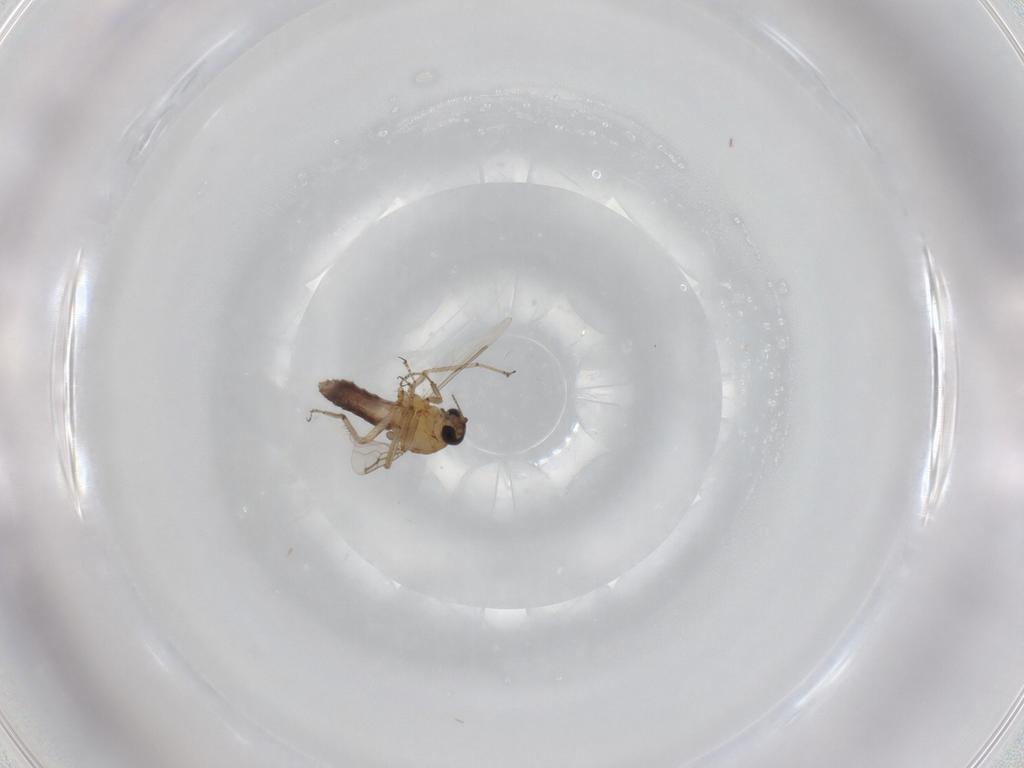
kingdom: Animalia
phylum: Arthropoda
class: Insecta
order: Diptera
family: Ceratopogonidae
